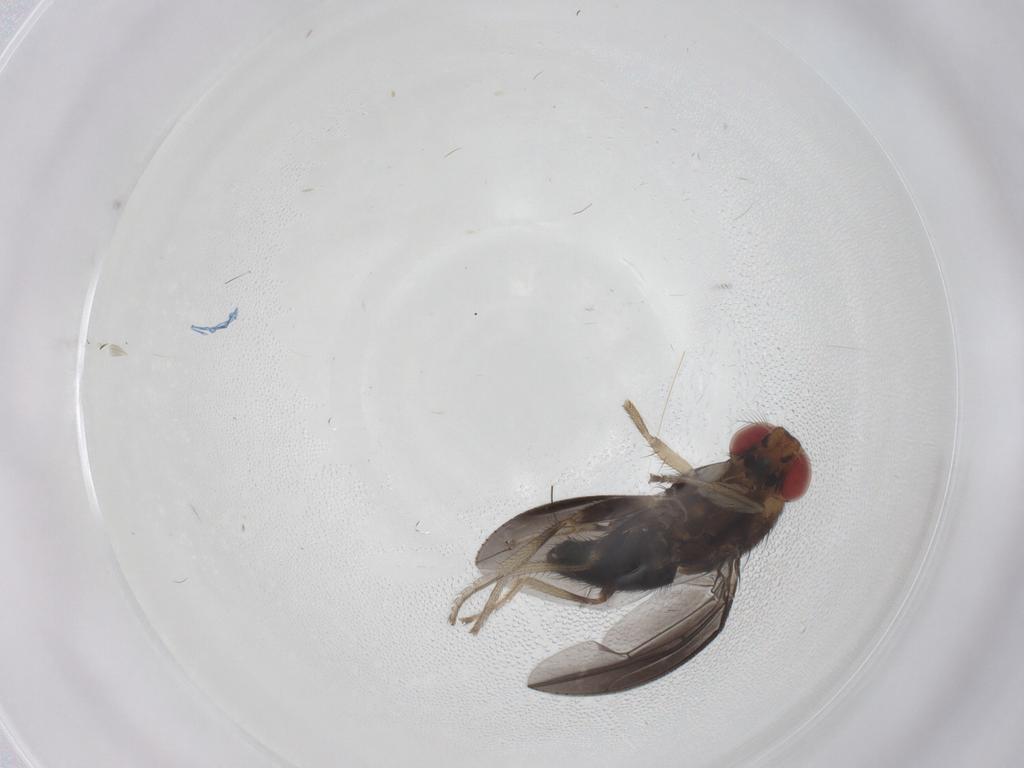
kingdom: Animalia
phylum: Arthropoda
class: Insecta
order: Diptera
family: Drosophilidae
